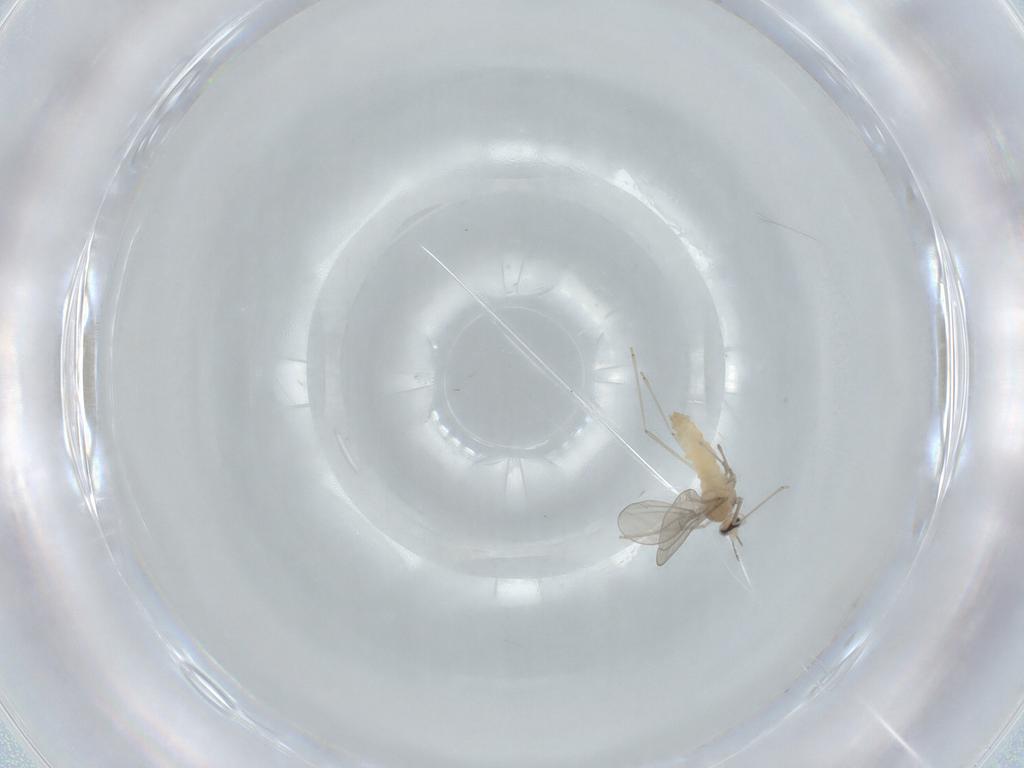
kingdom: Animalia
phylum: Arthropoda
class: Insecta
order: Diptera
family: Cecidomyiidae
